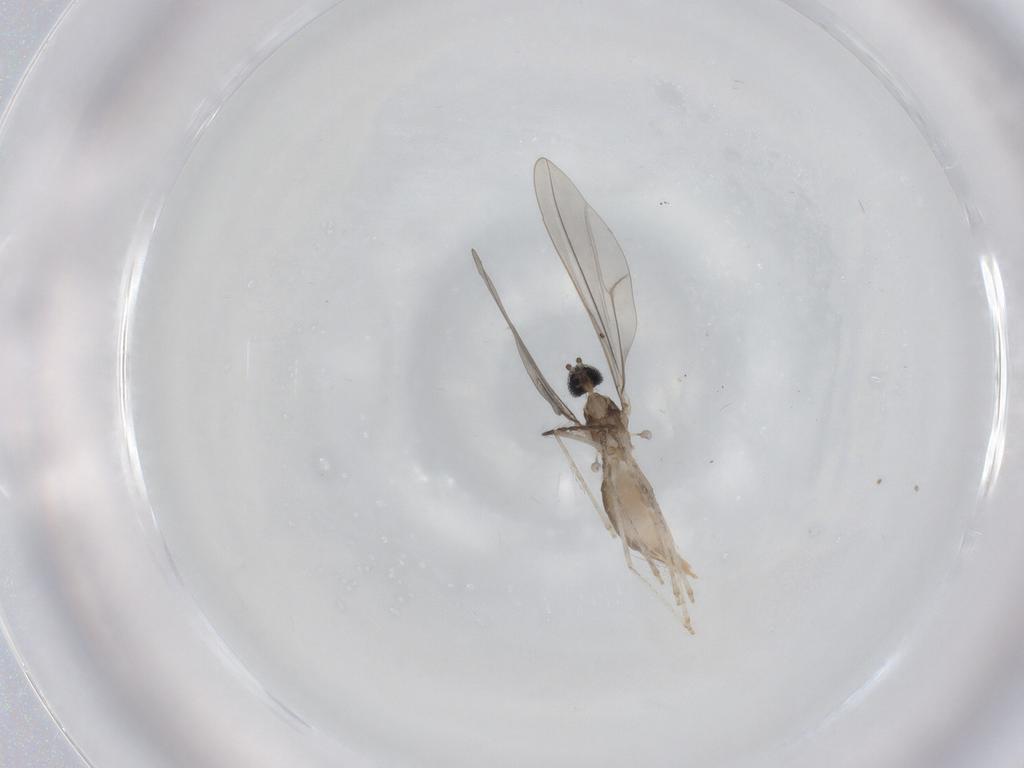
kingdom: Animalia
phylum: Arthropoda
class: Insecta
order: Diptera
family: Cecidomyiidae
